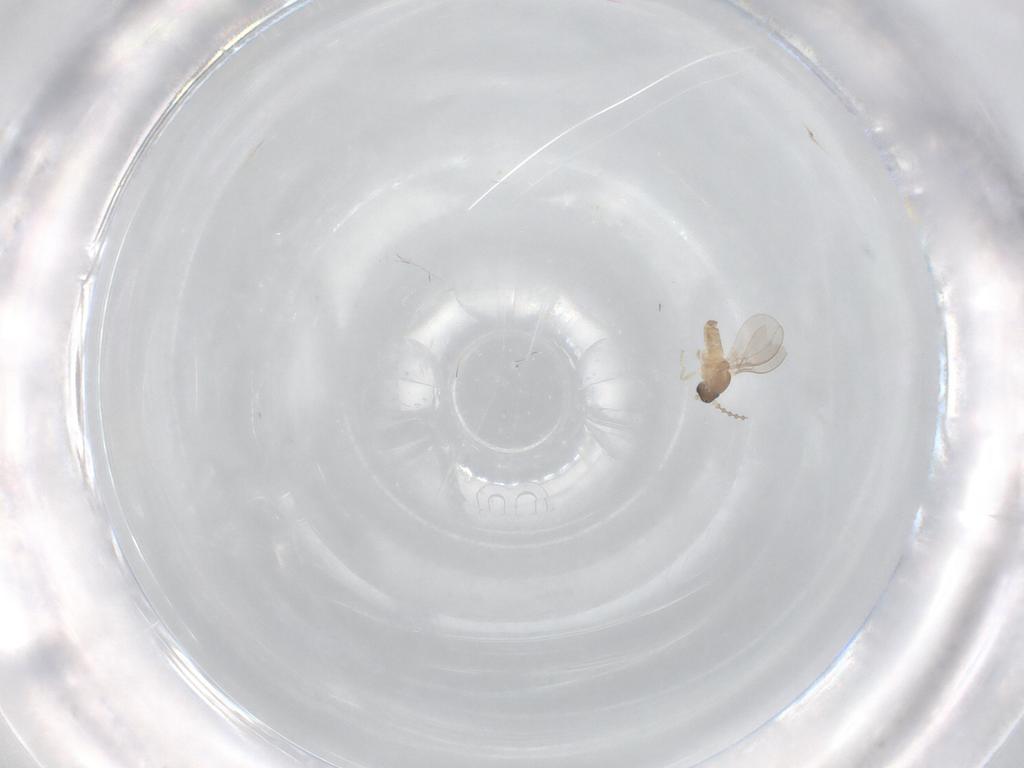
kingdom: Animalia
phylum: Arthropoda
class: Insecta
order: Diptera
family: Cecidomyiidae
